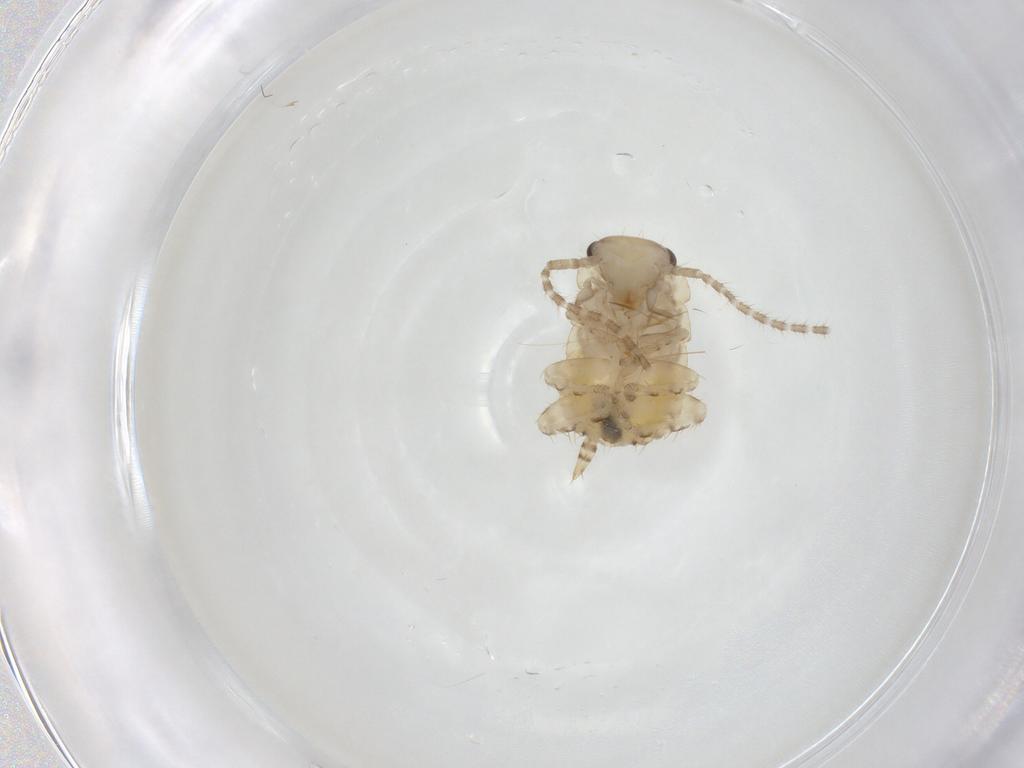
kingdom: Animalia
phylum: Arthropoda
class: Insecta
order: Blattodea
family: Ectobiidae
